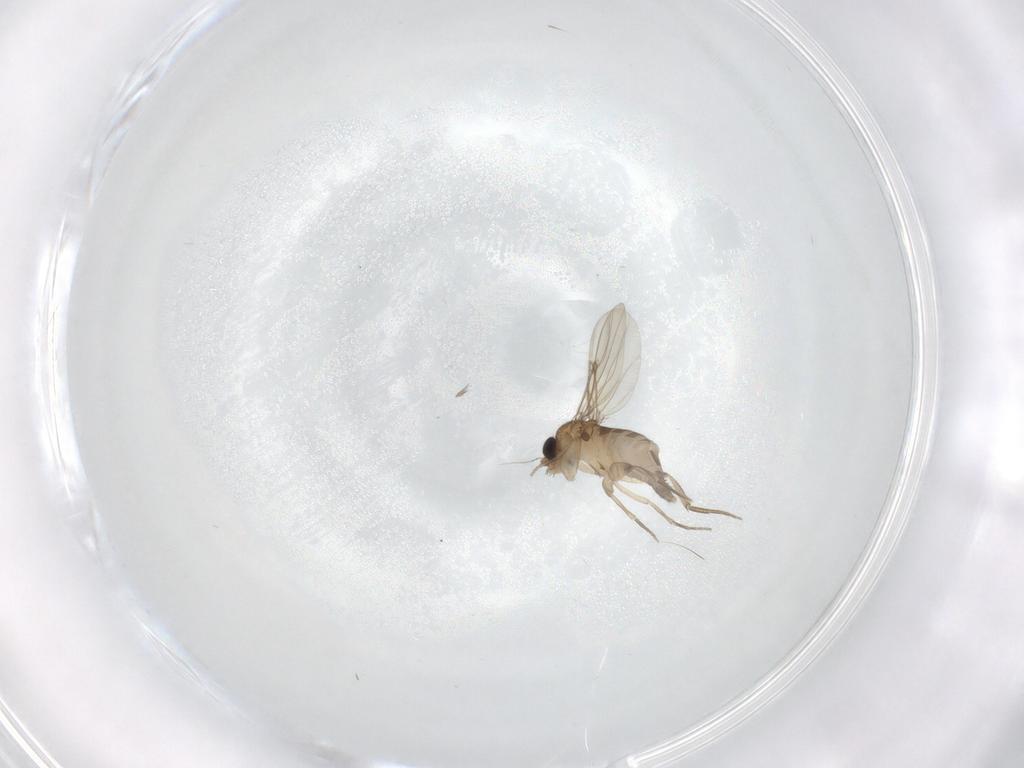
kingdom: Animalia
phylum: Arthropoda
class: Insecta
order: Diptera
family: Phoridae
